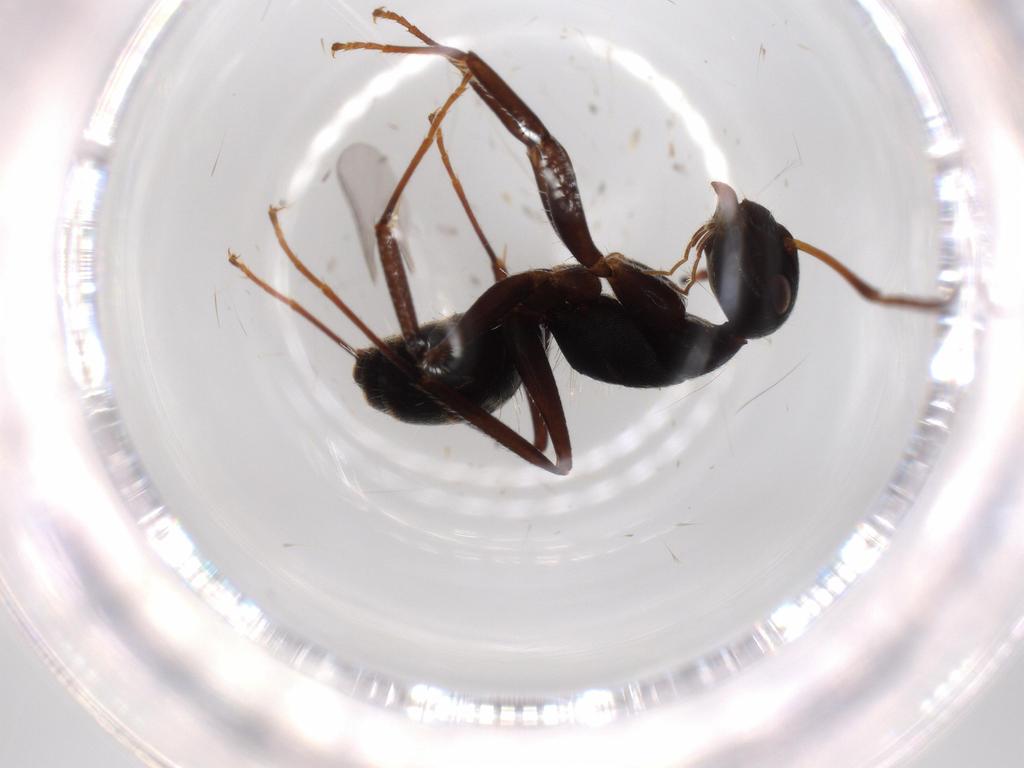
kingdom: Animalia
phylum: Arthropoda
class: Insecta
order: Hymenoptera
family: Formicidae
